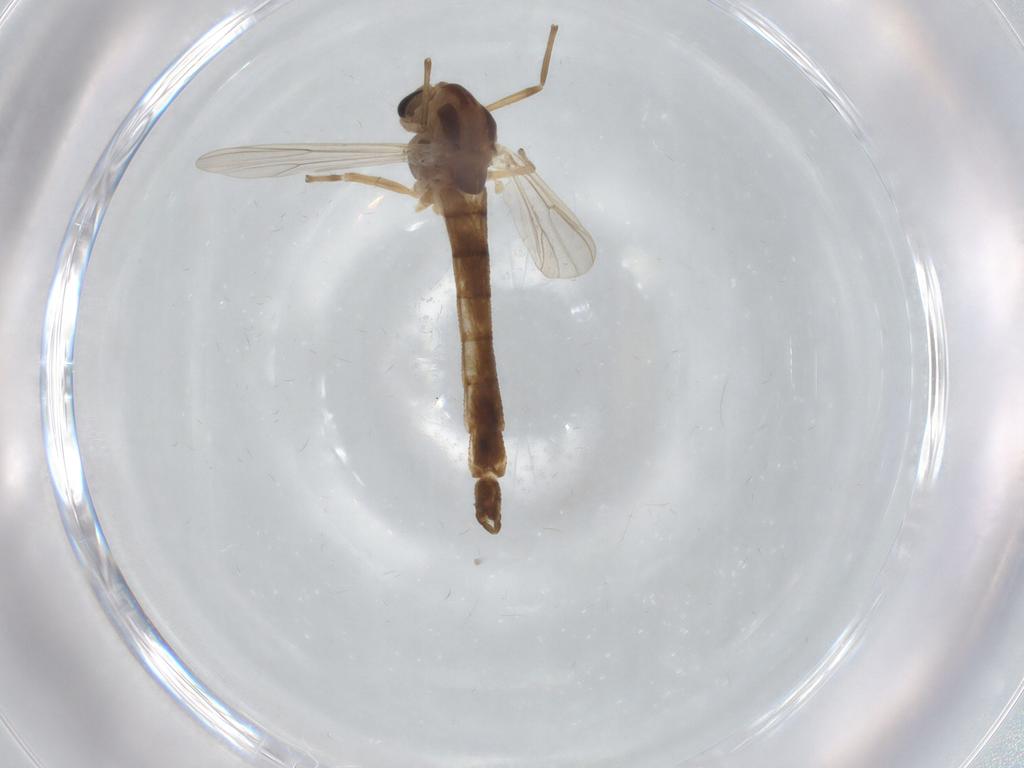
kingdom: Animalia
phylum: Arthropoda
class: Insecta
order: Diptera
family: Chironomidae
